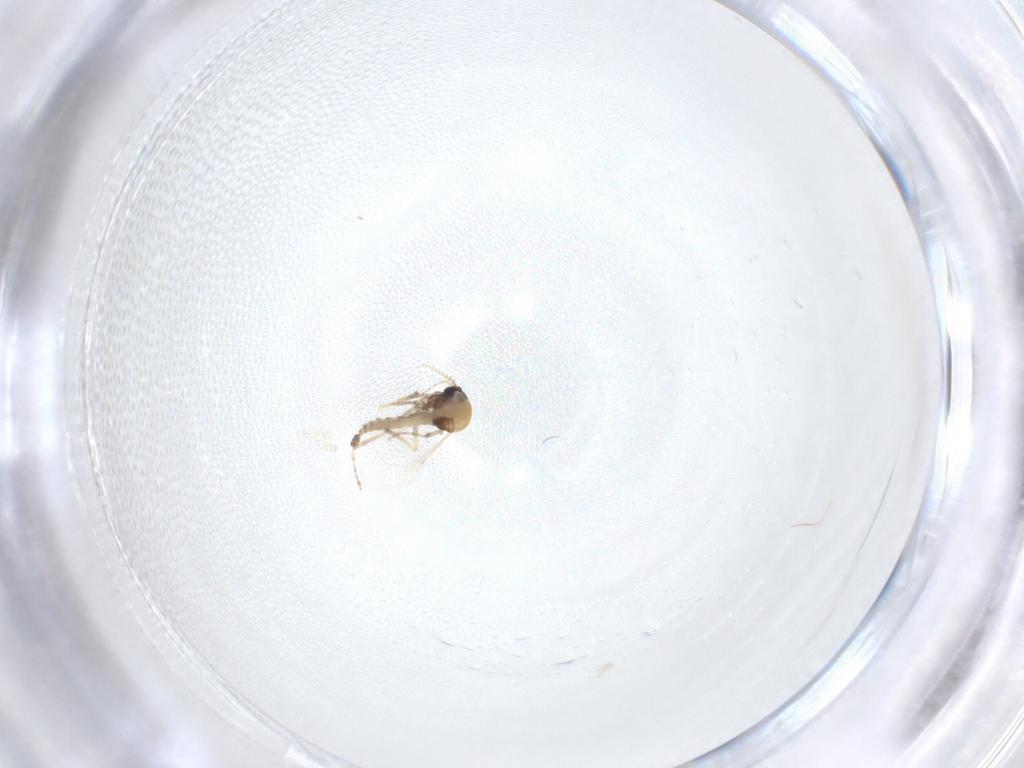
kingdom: Animalia
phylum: Arthropoda
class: Insecta
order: Diptera
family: Ceratopogonidae
